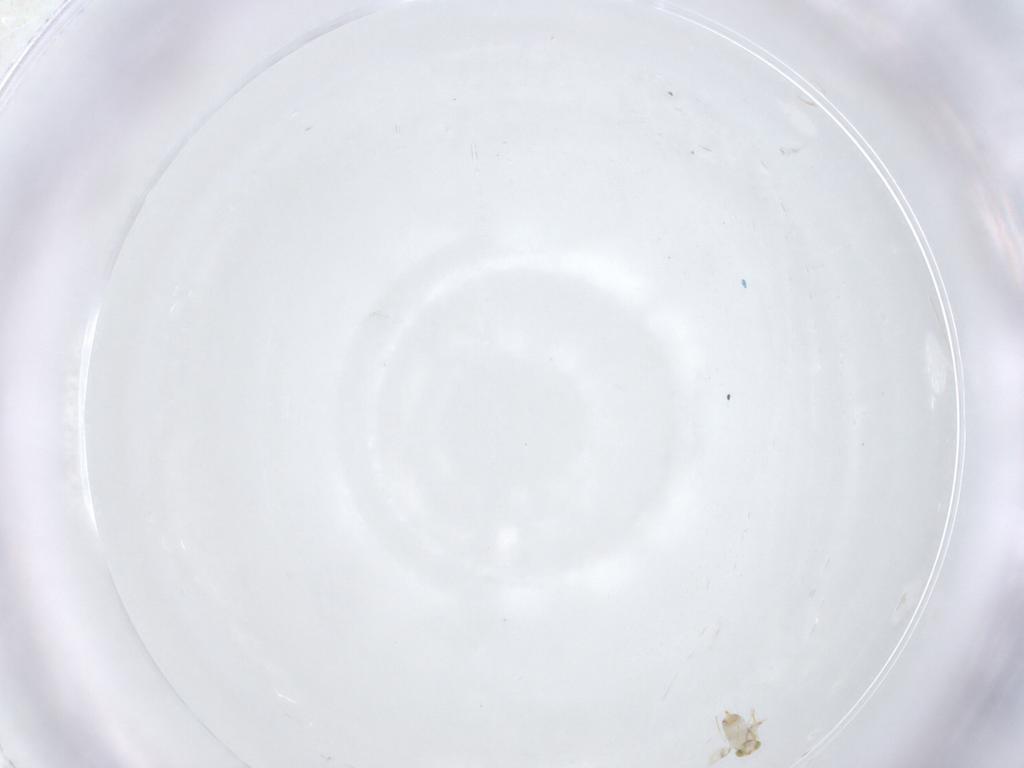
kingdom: Animalia
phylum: Arthropoda
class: Insecta
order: Hymenoptera
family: Aphelinidae
